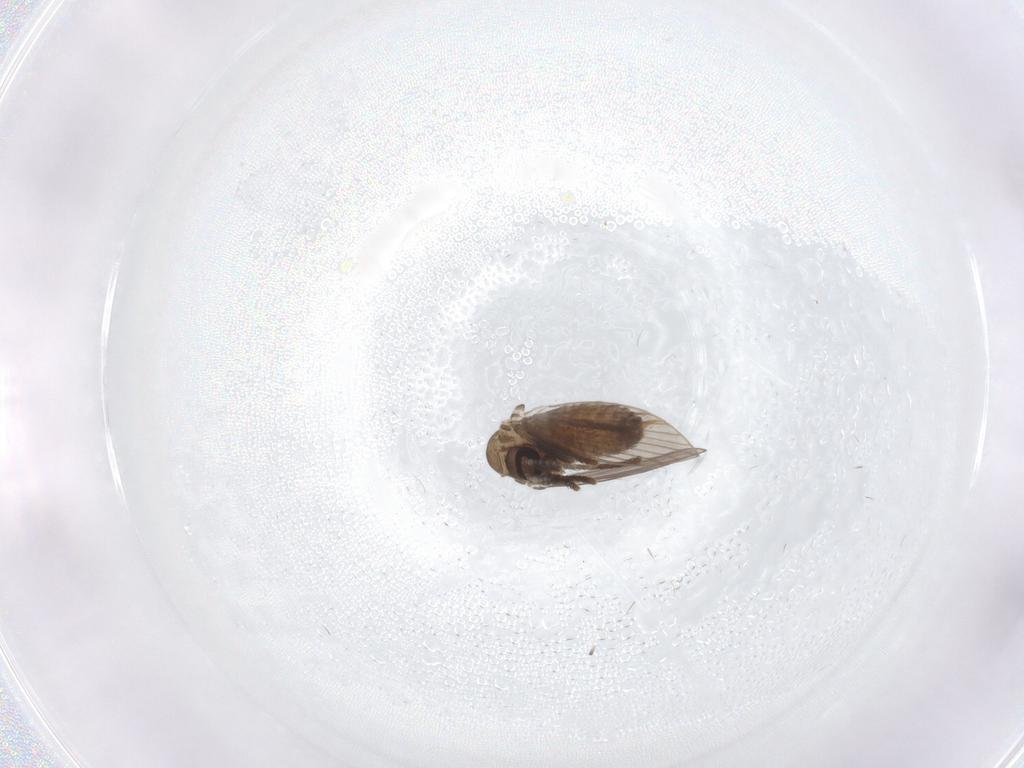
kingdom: Animalia
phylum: Arthropoda
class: Insecta
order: Diptera
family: Psychodidae
